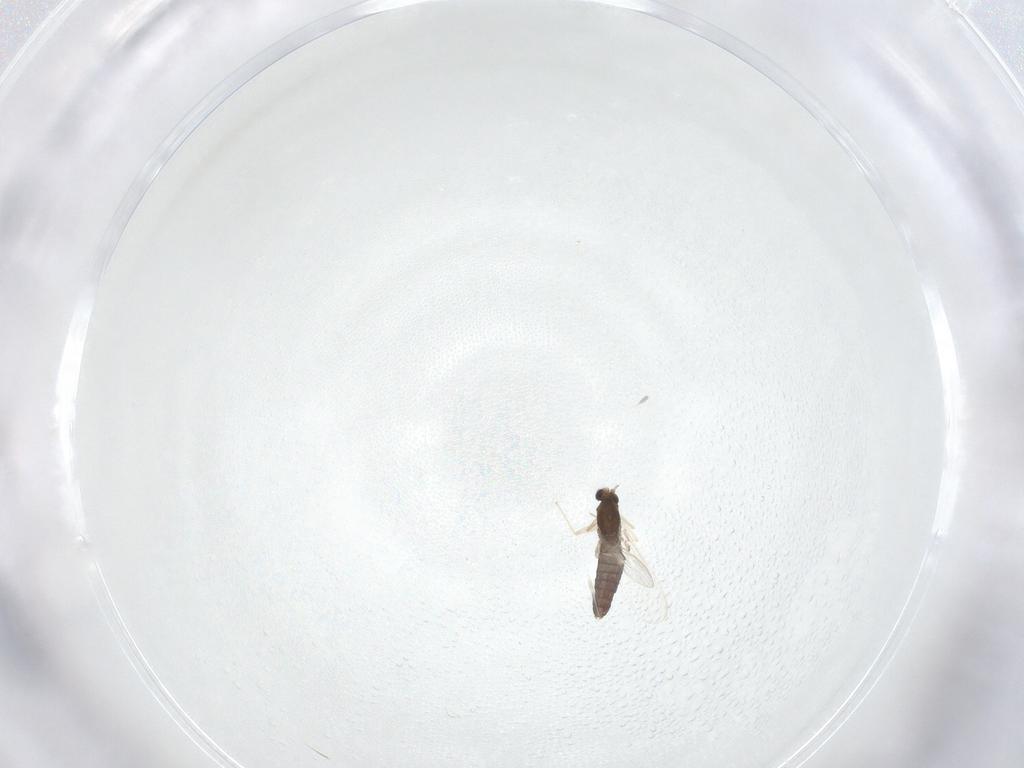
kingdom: Animalia
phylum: Arthropoda
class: Insecta
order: Diptera
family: Chironomidae
